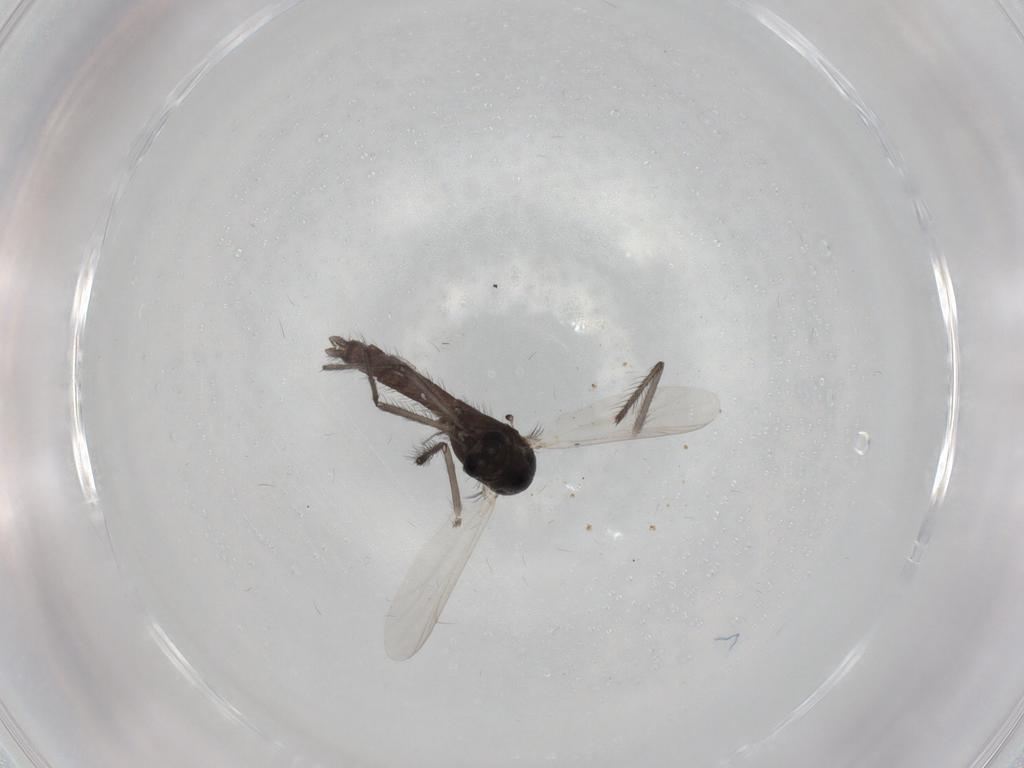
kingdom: Animalia
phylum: Arthropoda
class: Insecta
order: Diptera
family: Chironomidae
